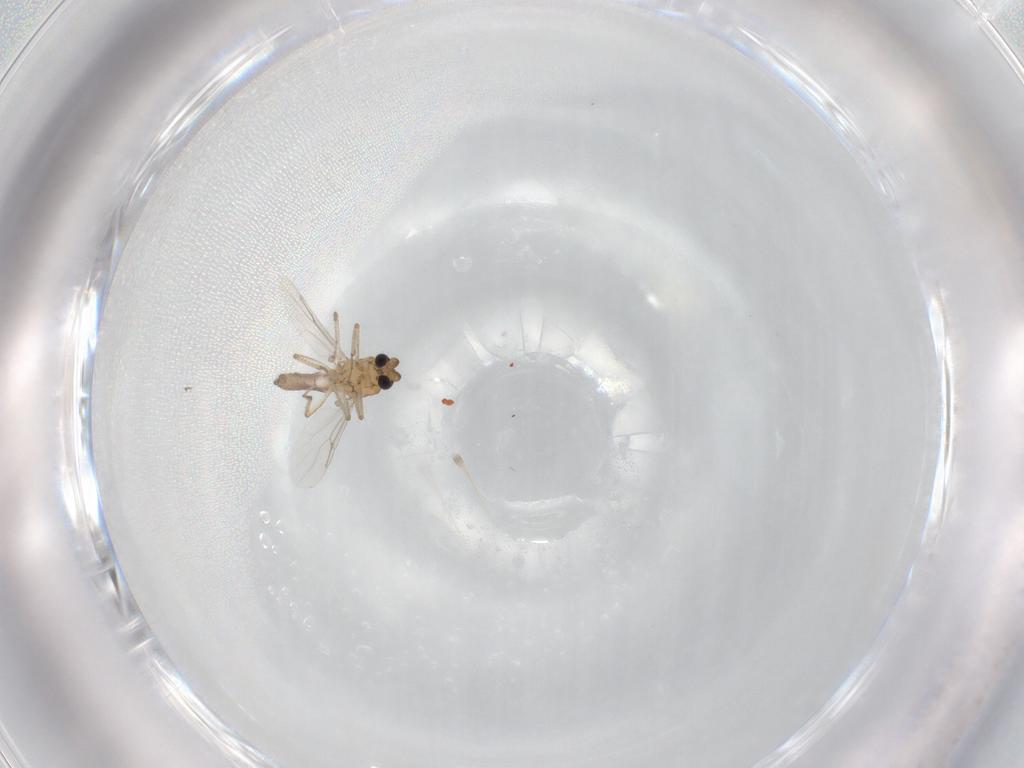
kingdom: Animalia
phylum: Arthropoda
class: Insecta
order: Diptera
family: Ceratopogonidae
